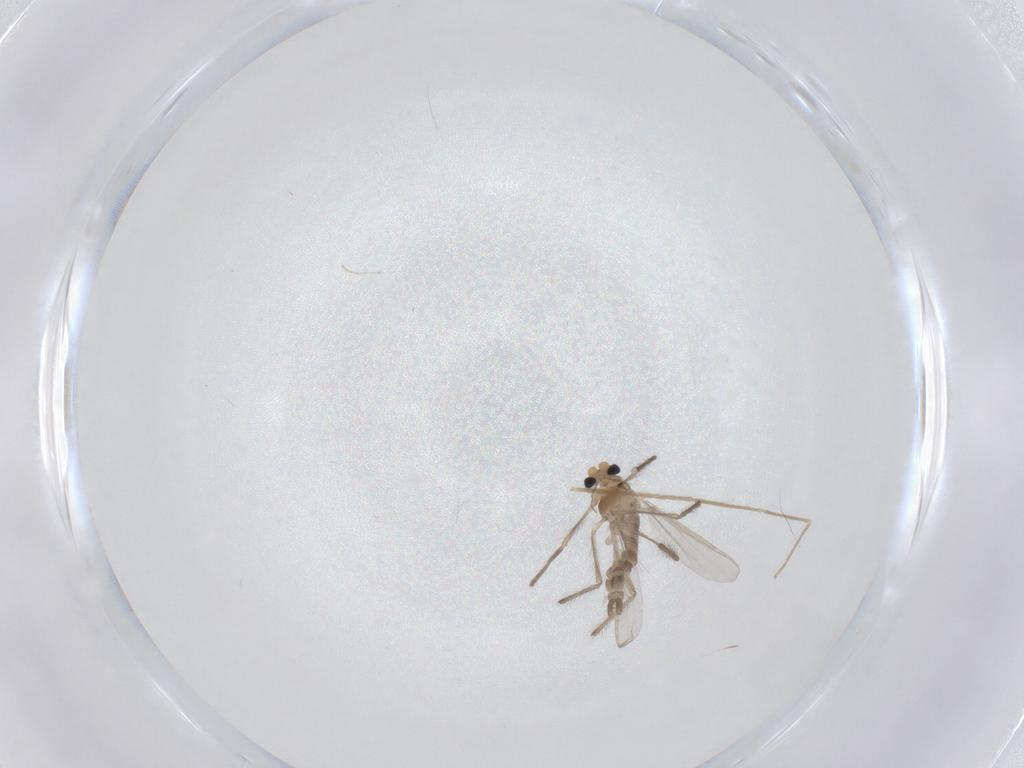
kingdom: Animalia
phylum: Arthropoda
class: Insecta
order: Diptera
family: Chironomidae
